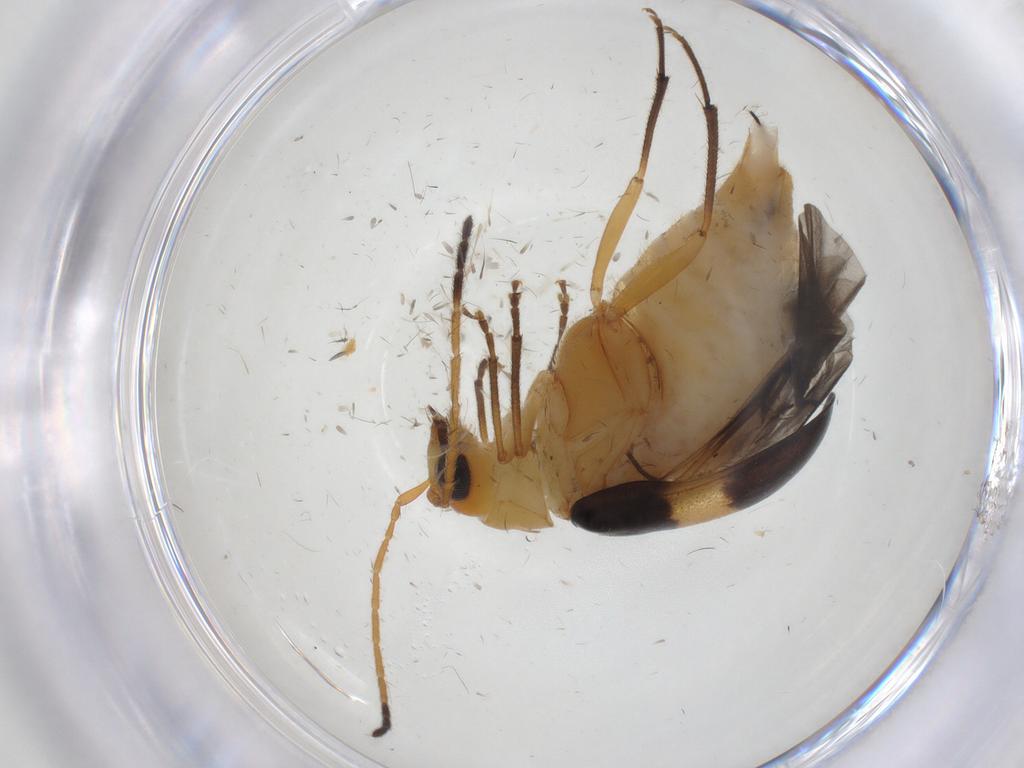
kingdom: Animalia
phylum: Arthropoda
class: Insecta
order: Coleoptera
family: Chrysomelidae
